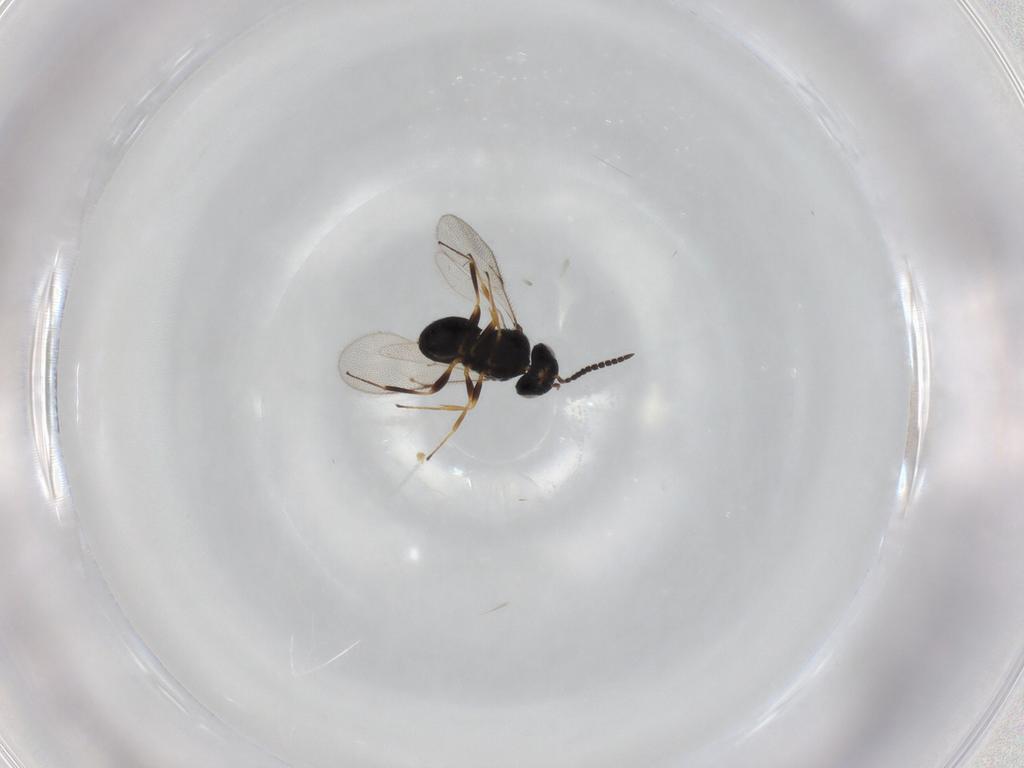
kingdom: Animalia
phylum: Arthropoda
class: Insecta
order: Hymenoptera
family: Scelionidae
